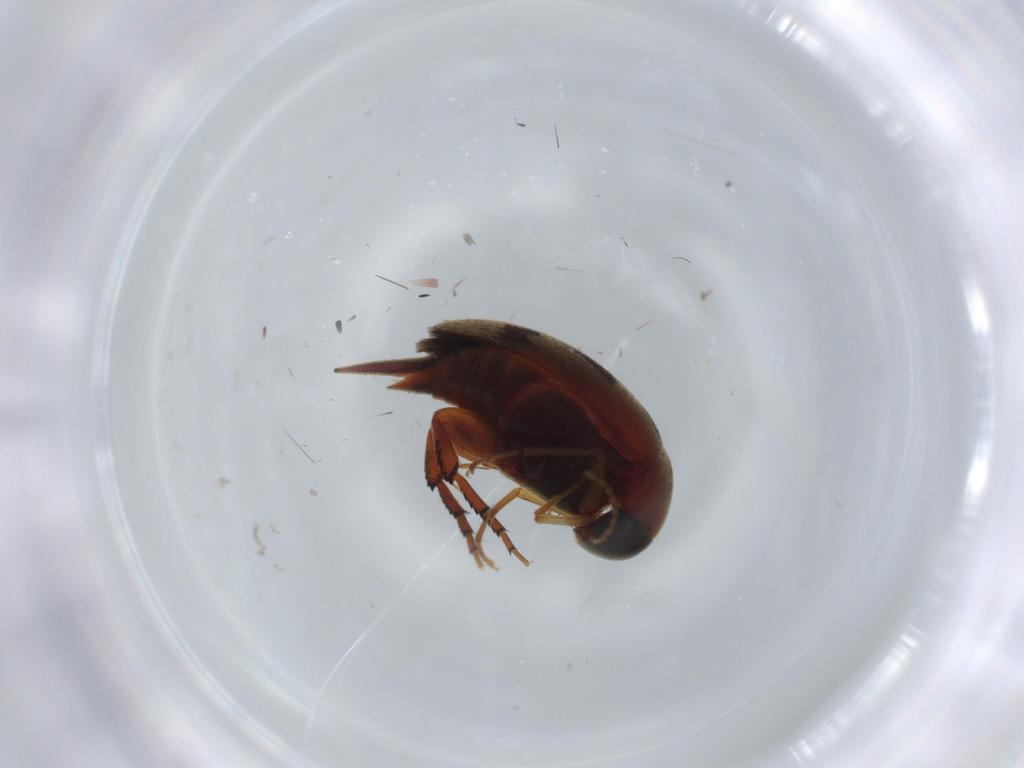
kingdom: Animalia
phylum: Arthropoda
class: Insecta
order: Coleoptera
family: Mordellidae
